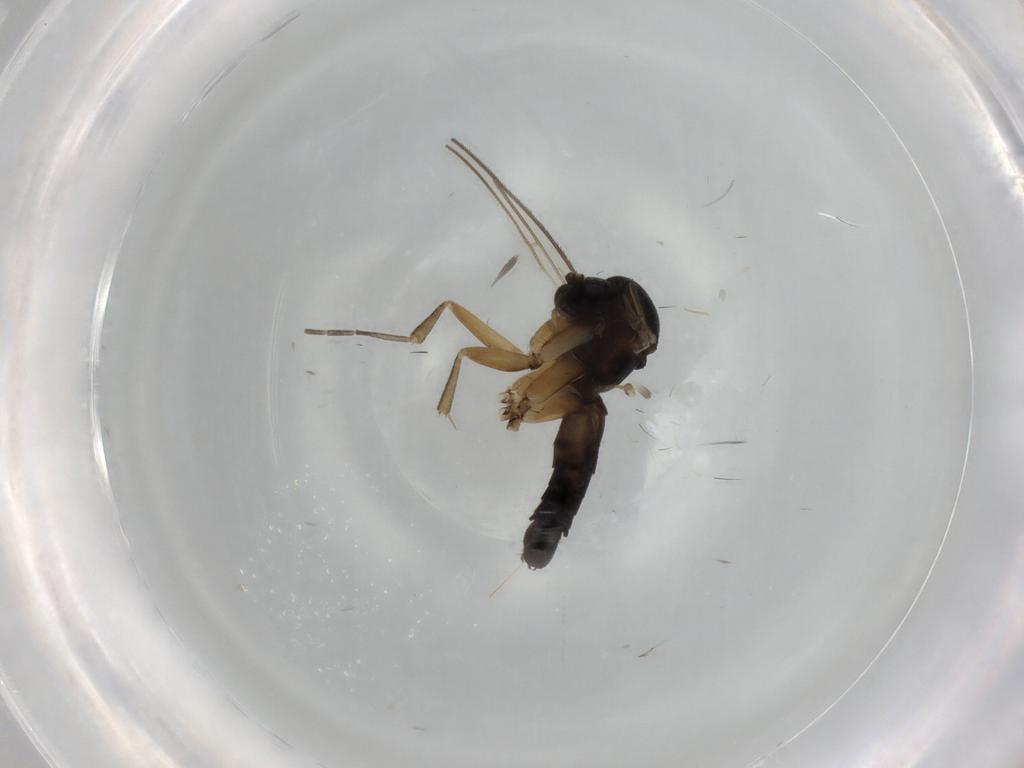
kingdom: Animalia
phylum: Arthropoda
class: Insecta
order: Diptera
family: Mycetophilidae
